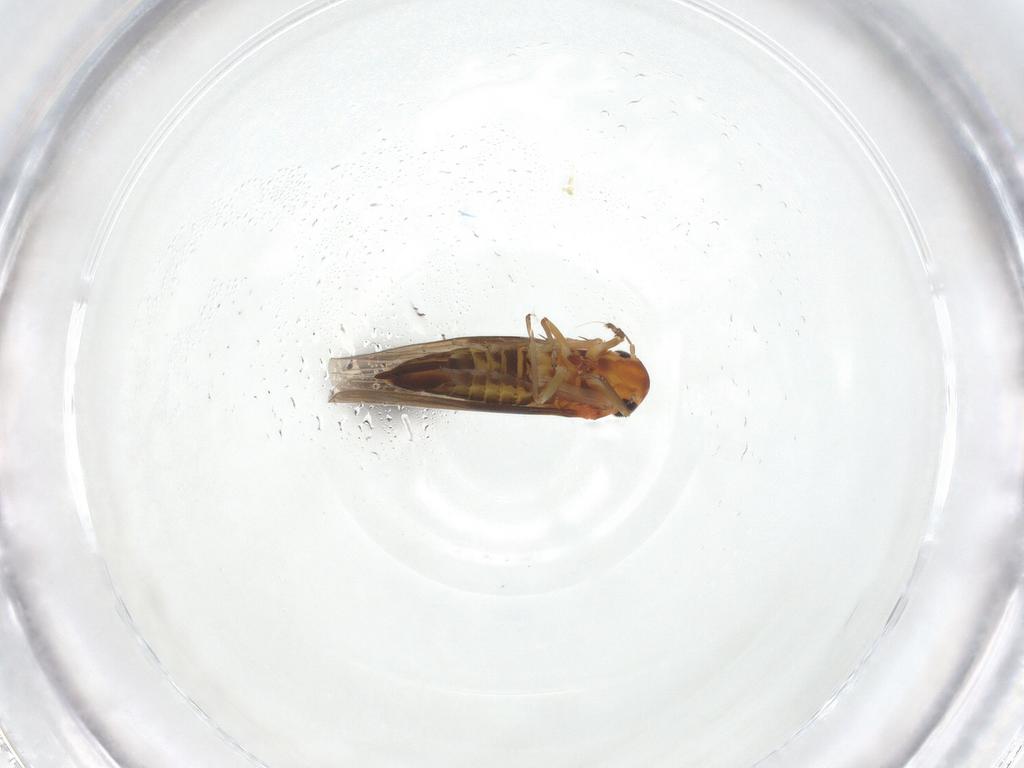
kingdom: Animalia
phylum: Arthropoda
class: Insecta
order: Hemiptera
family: Cicadellidae
